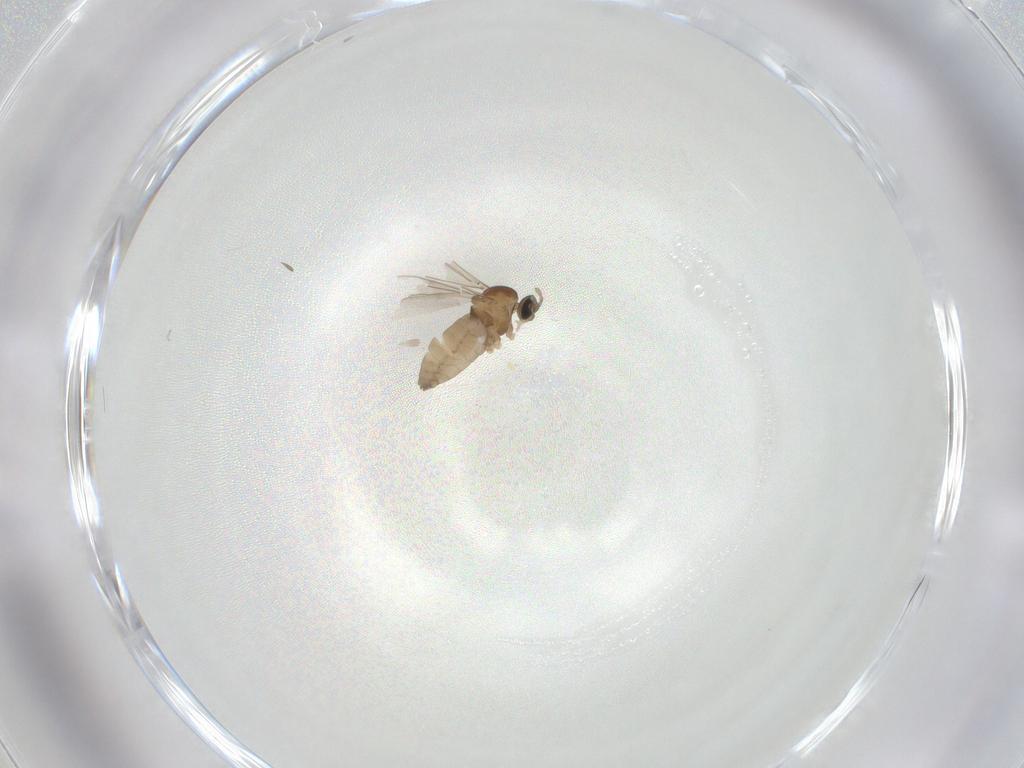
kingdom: Animalia
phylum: Arthropoda
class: Insecta
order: Diptera
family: Cecidomyiidae
